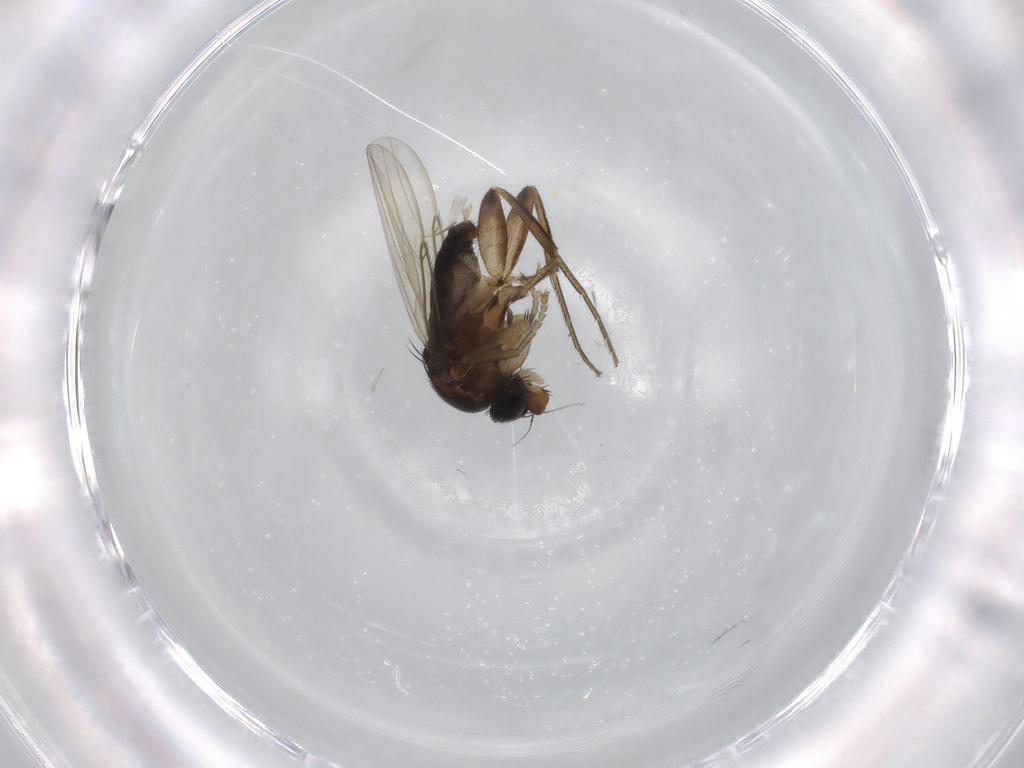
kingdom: Animalia
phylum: Arthropoda
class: Insecta
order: Diptera
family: Phoridae
